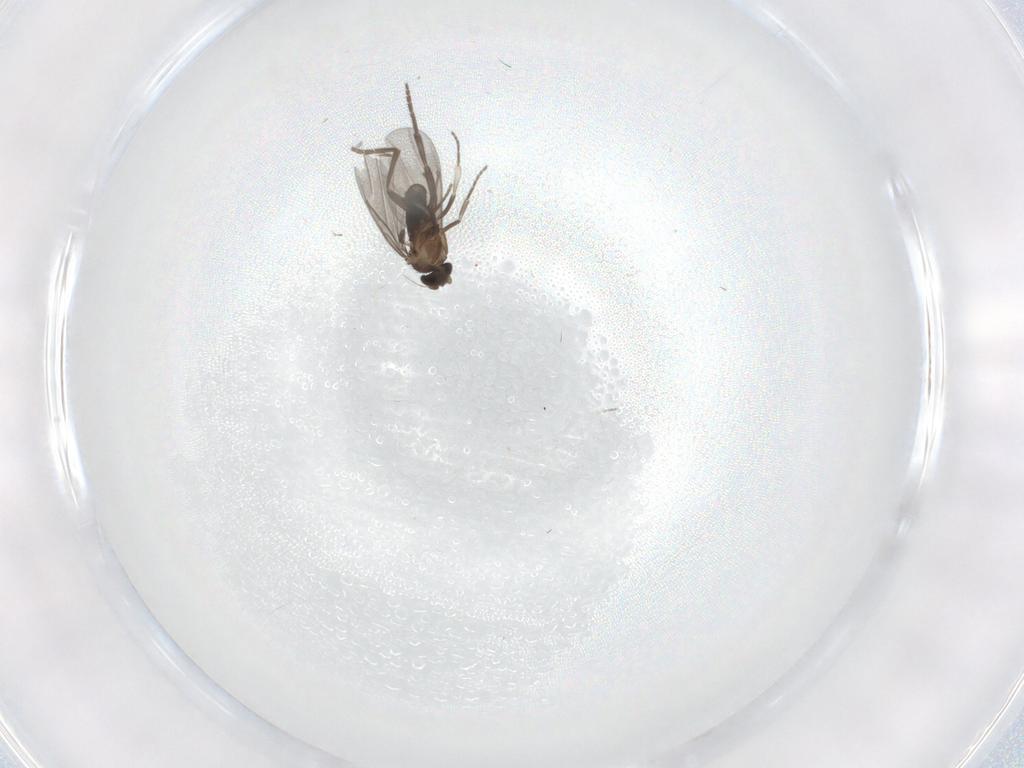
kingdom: Animalia
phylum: Arthropoda
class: Insecta
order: Diptera
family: Phoridae
